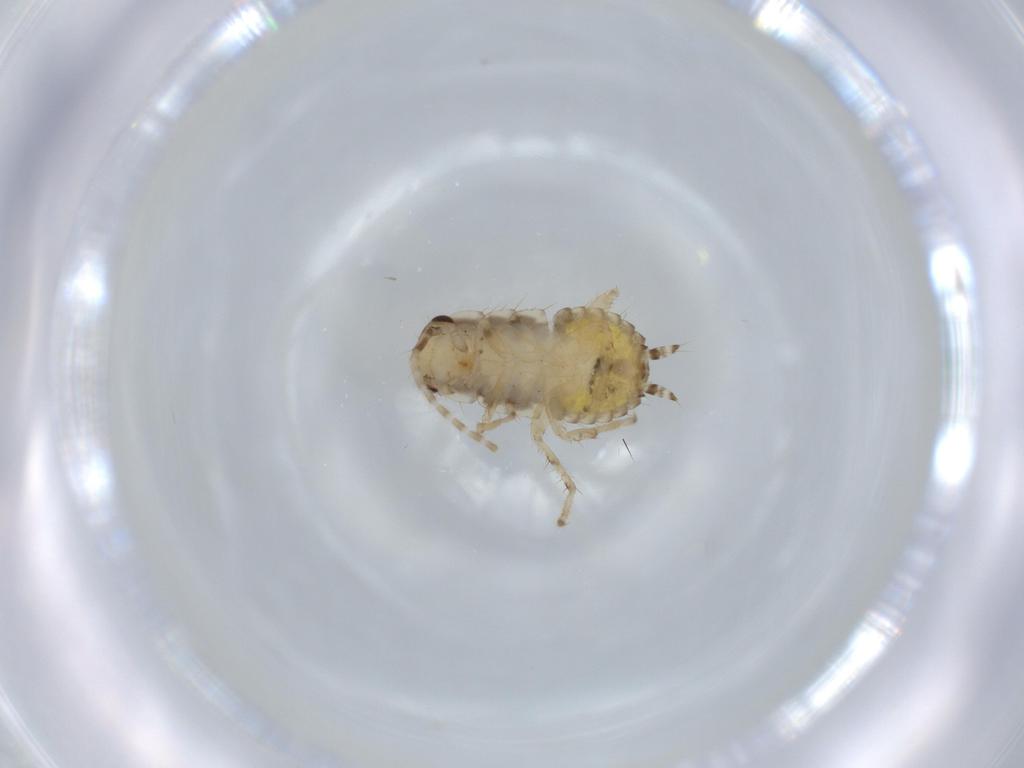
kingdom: Animalia
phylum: Arthropoda
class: Insecta
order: Blattodea
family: Ectobiidae
